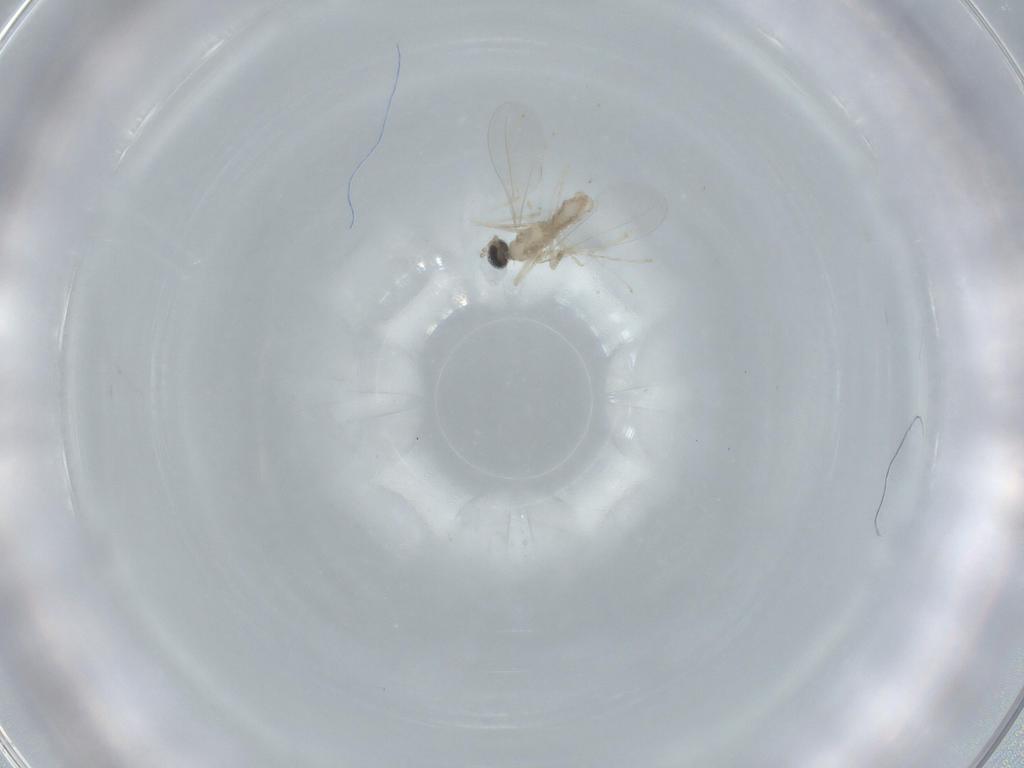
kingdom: Animalia
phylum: Arthropoda
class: Insecta
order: Diptera
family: Cecidomyiidae
